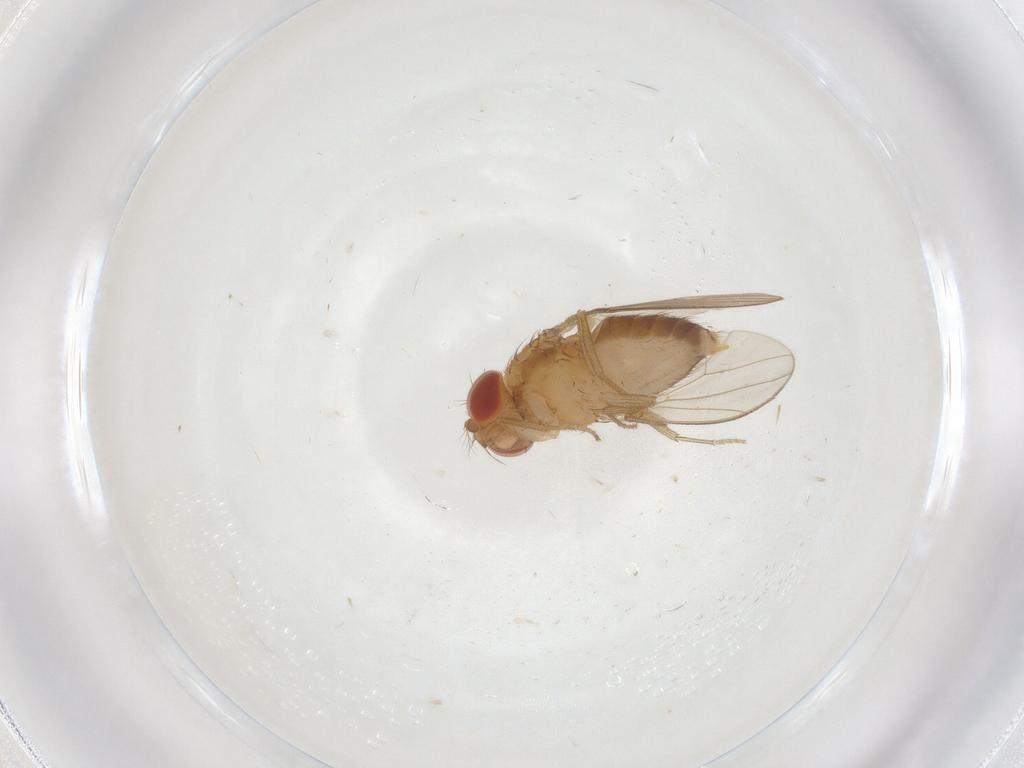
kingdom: Animalia
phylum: Arthropoda
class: Insecta
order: Diptera
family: Drosophilidae
